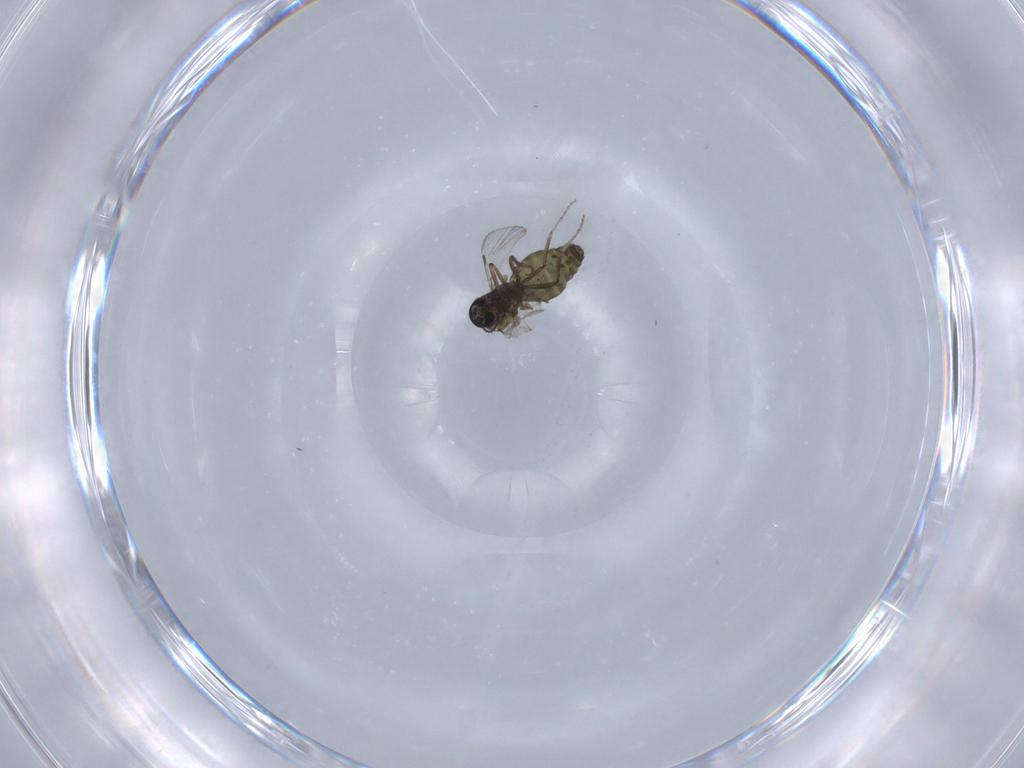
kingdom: Animalia
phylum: Arthropoda
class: Insecta
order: Diptera
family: Ceratopogonidae
